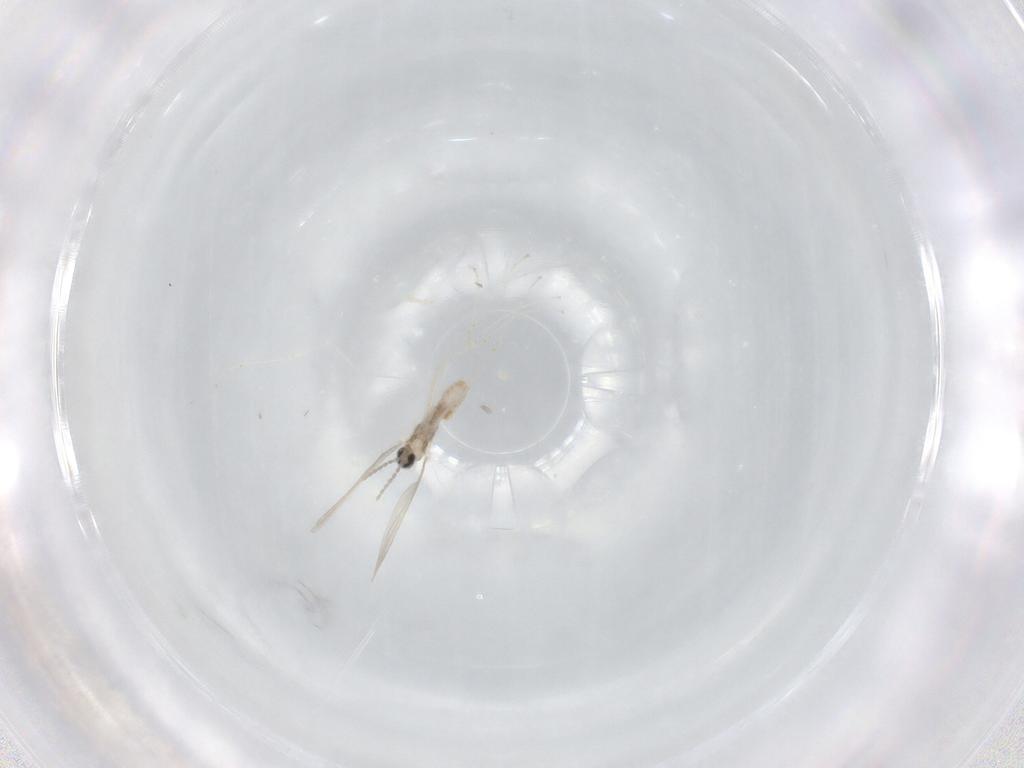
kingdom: Animalia
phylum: Arthropoda
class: Insecta
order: Diptera
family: Cecidomyiidae
